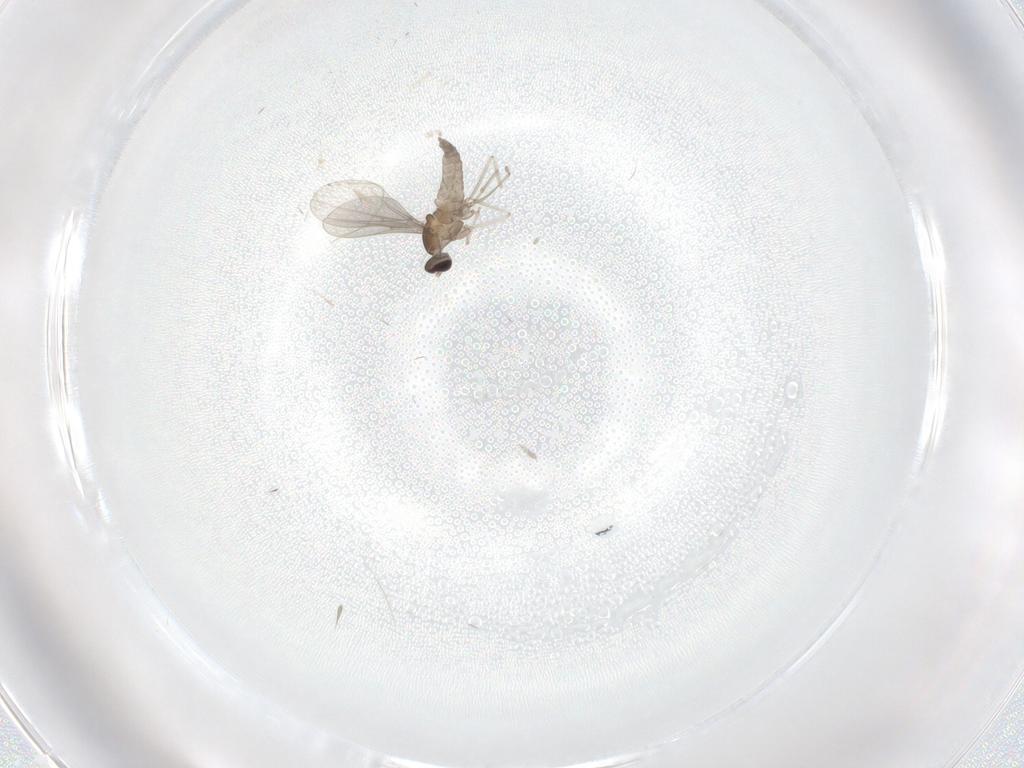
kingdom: Animalia
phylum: Arthropoda
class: Insecta
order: Diptera
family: Cecidomyiidae
